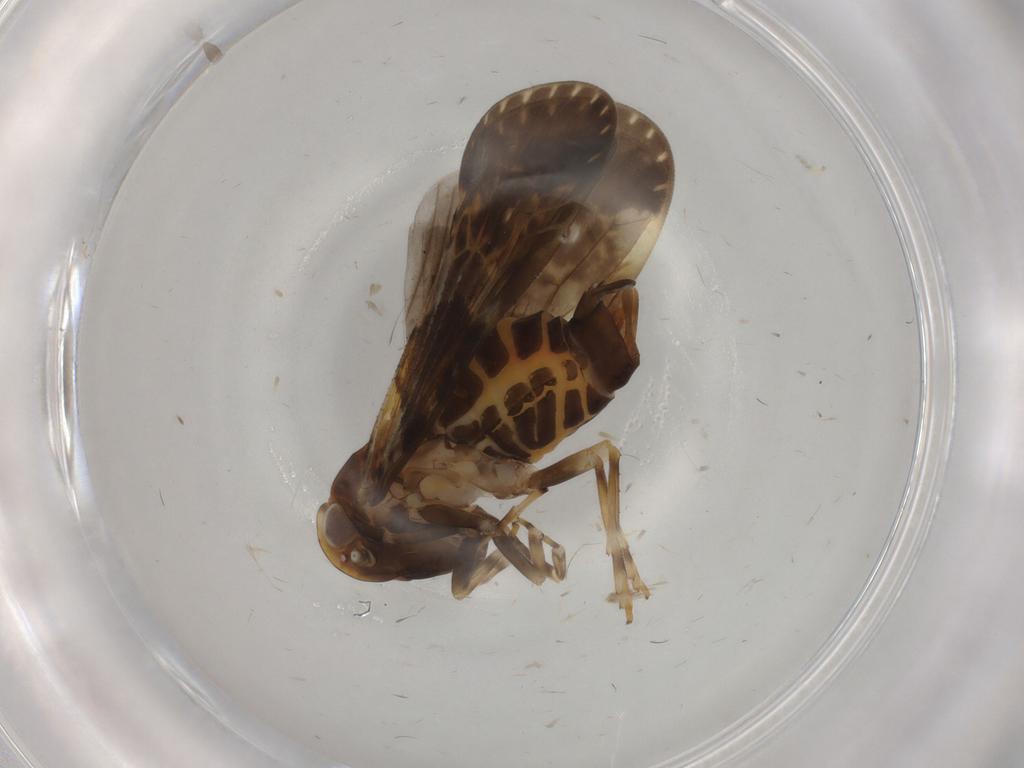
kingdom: Animalia
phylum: Arthropoda
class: Insecta
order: Hemiptera
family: Cixiidae
